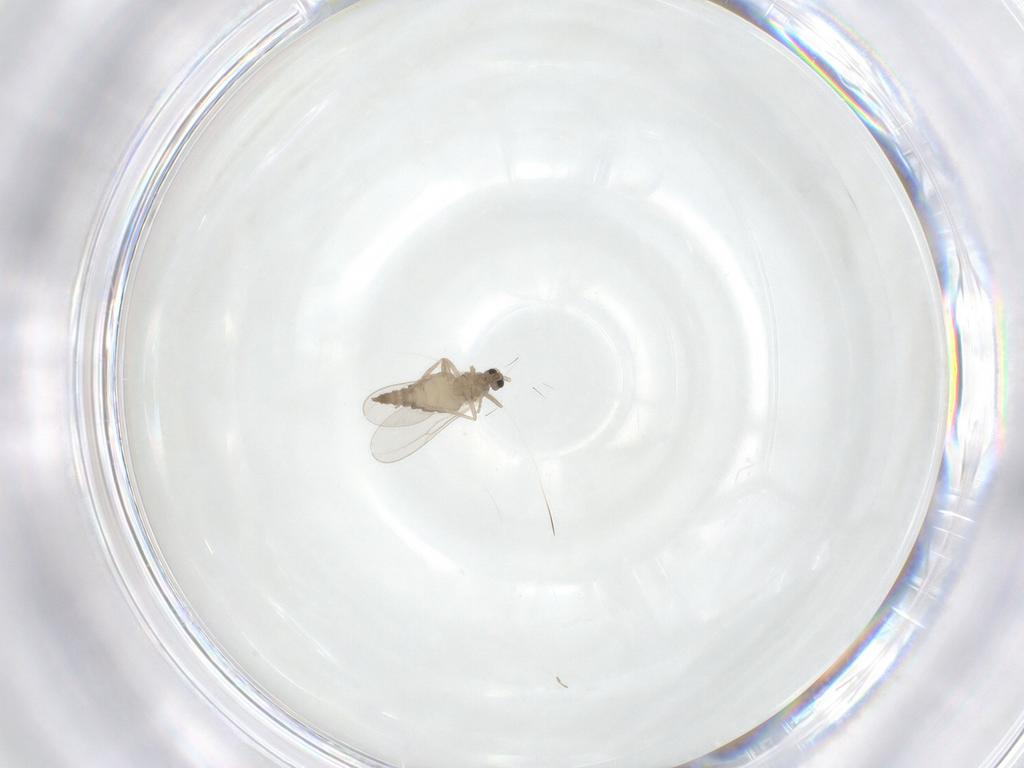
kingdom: Animalia
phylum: Arthropoda
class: Insecta
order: Diptera
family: Cecidomyiidae
